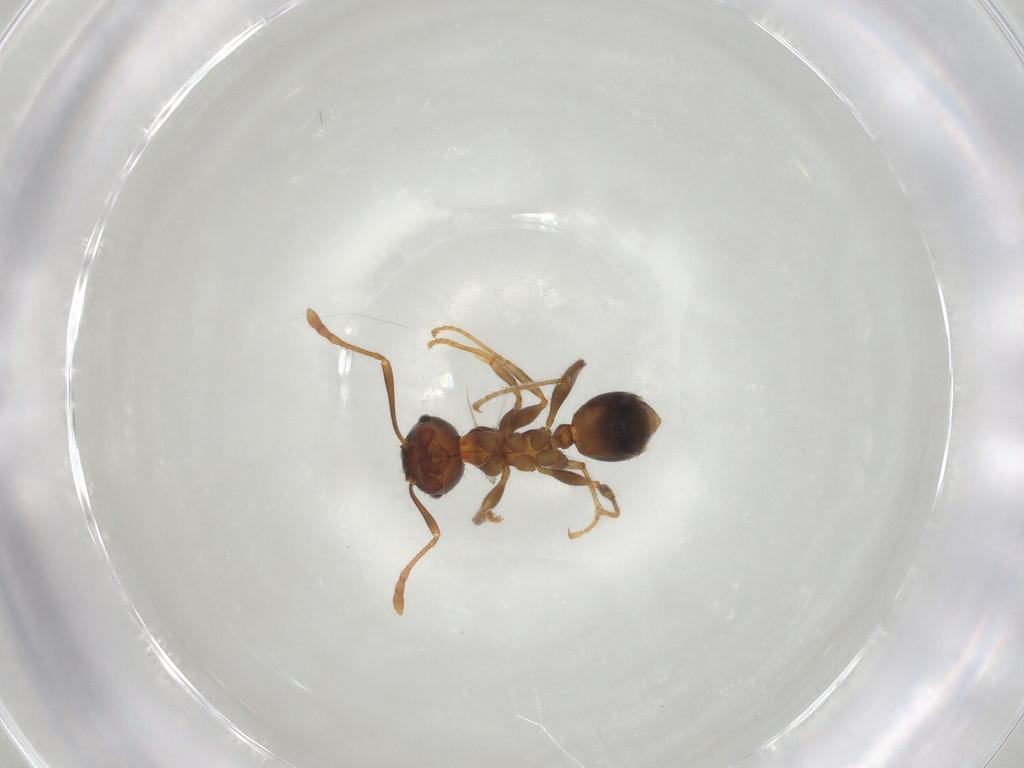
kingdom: Animalia
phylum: Arthropoda
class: Insecta
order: Hymenoptera
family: Formicidae
